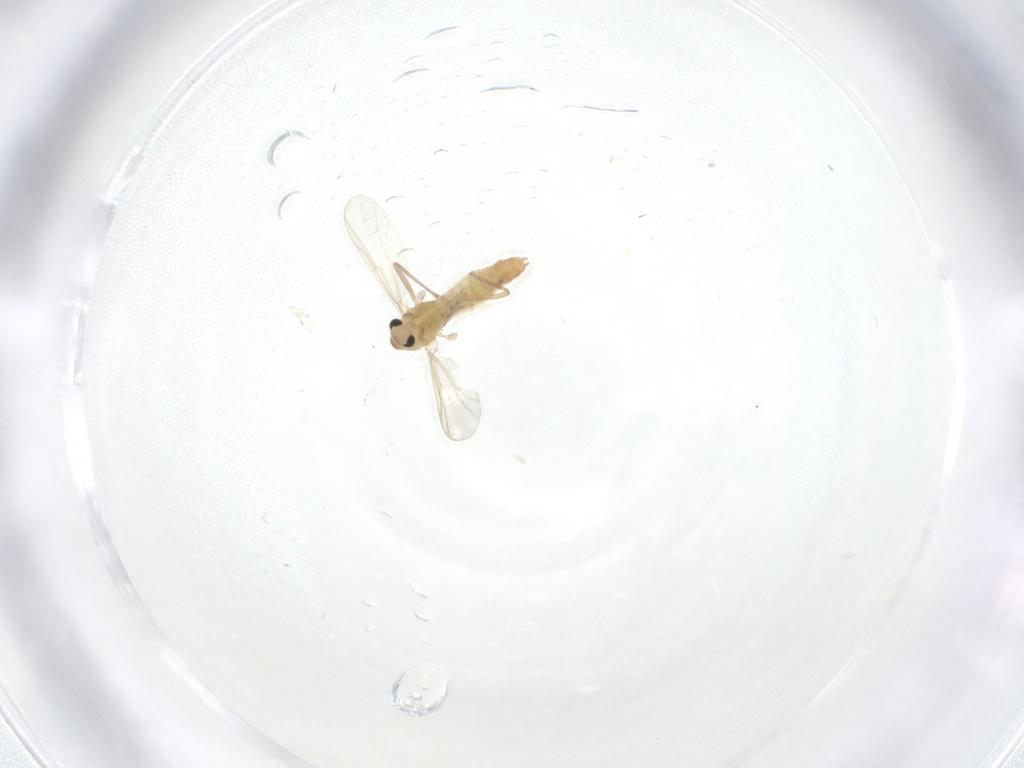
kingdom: Animalia
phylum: Arthropoda
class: Insecta
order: Diptera
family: Chironomidae
